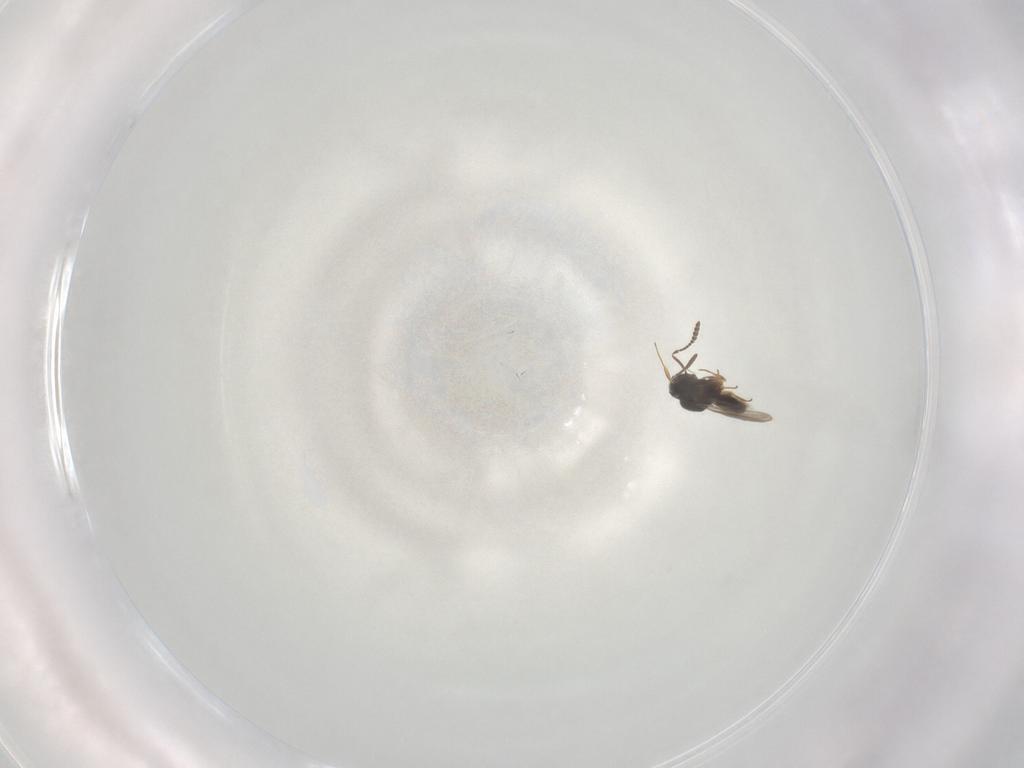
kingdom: Animalia
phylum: Arthropoda
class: Insecta
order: Hymenoptera
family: Scelionidae
